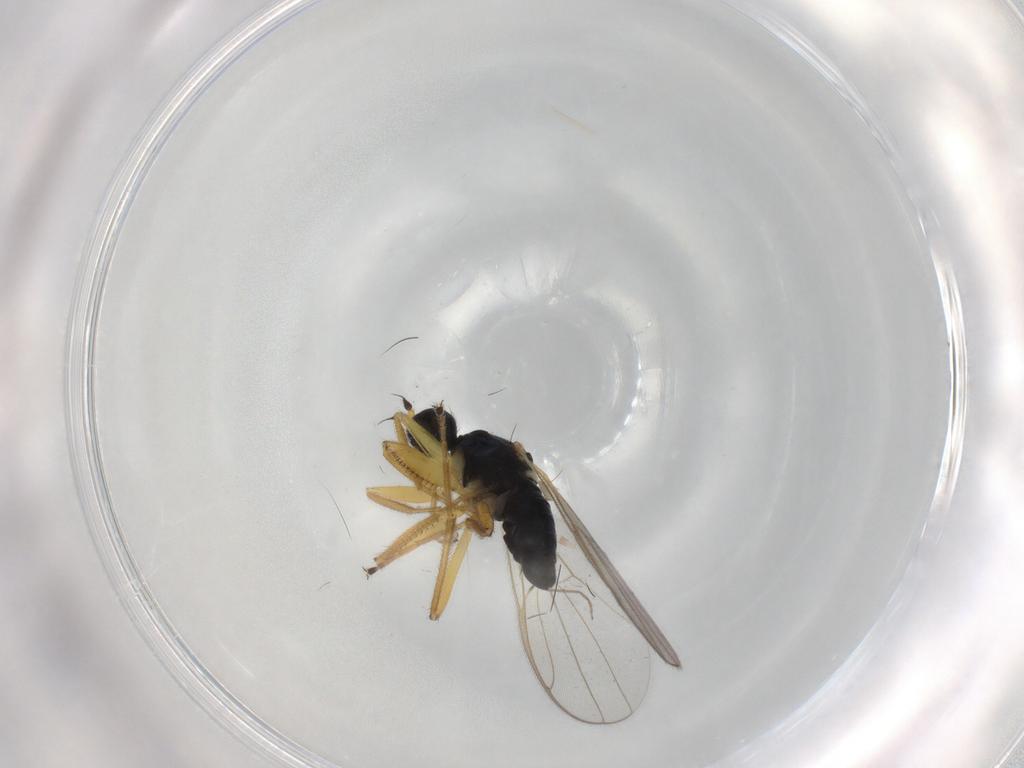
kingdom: Animalia
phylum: Arthropoda
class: Insecta
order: Diptera
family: Hybotidae
